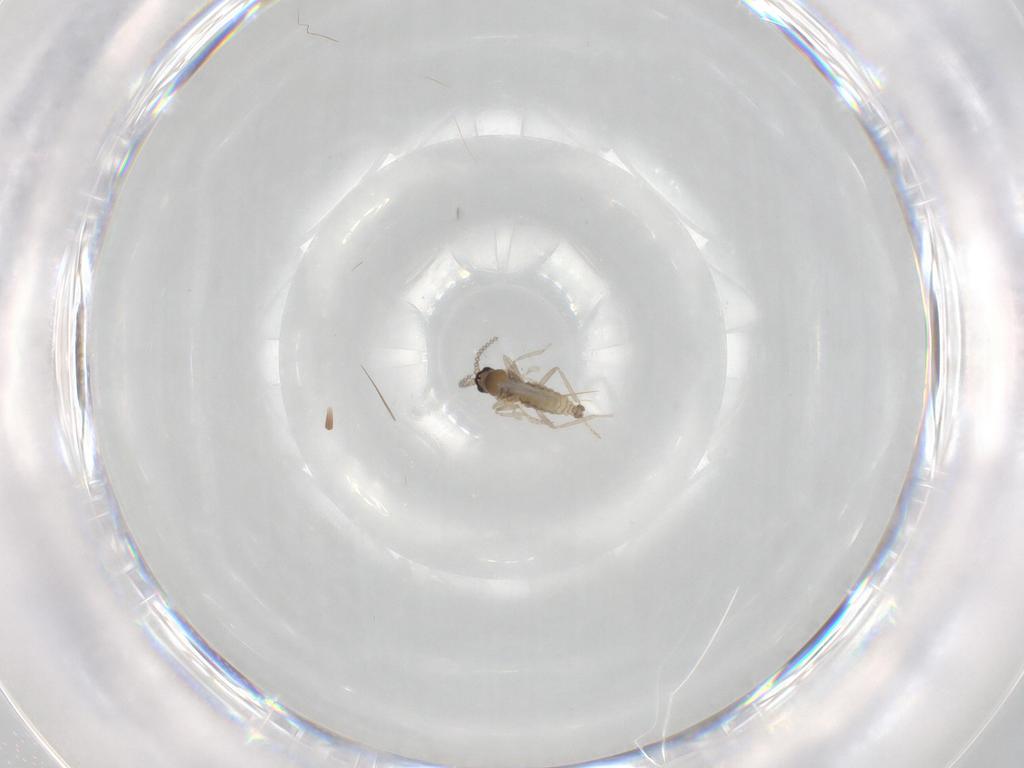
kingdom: Animalia
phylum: Arthropoda
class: Insecta
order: Diptera
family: Cecidomyiidae
